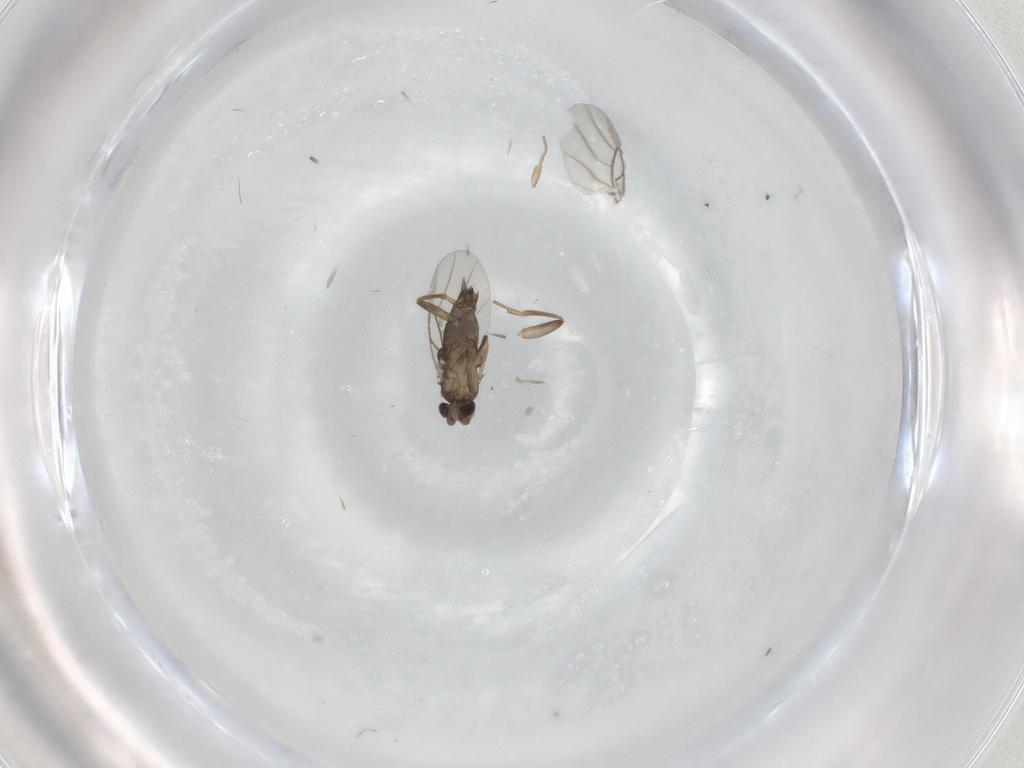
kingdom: Animalia
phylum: Arthropoda
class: Insecta
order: Diptera
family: Phoridae
